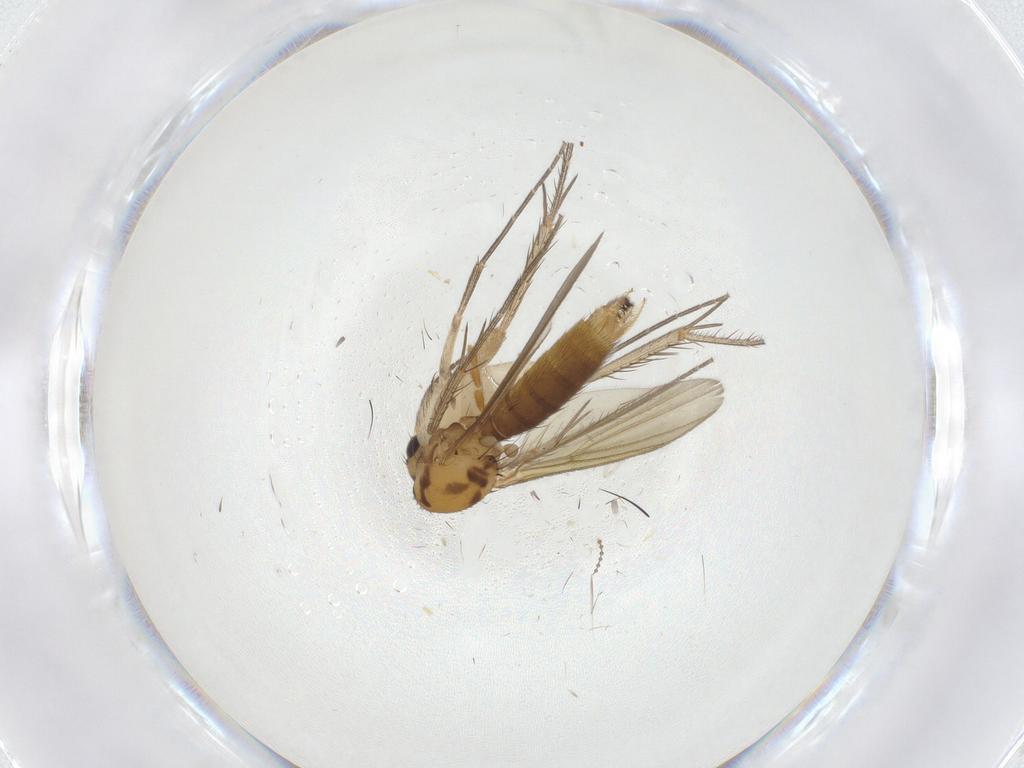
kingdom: Animalia
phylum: Arthropoda
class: Insecta
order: Diptera
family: Mycetophilidae
